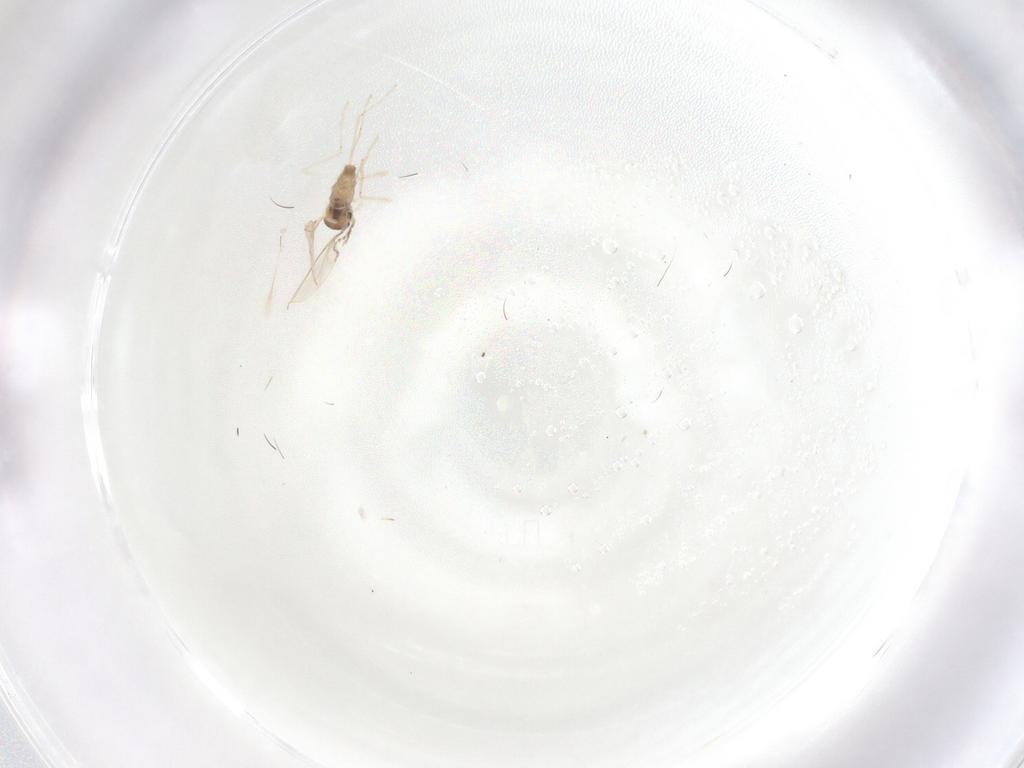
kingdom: Animalia
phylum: Arthropoda
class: Insecta
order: Diptera
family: Cecidomyiidae
